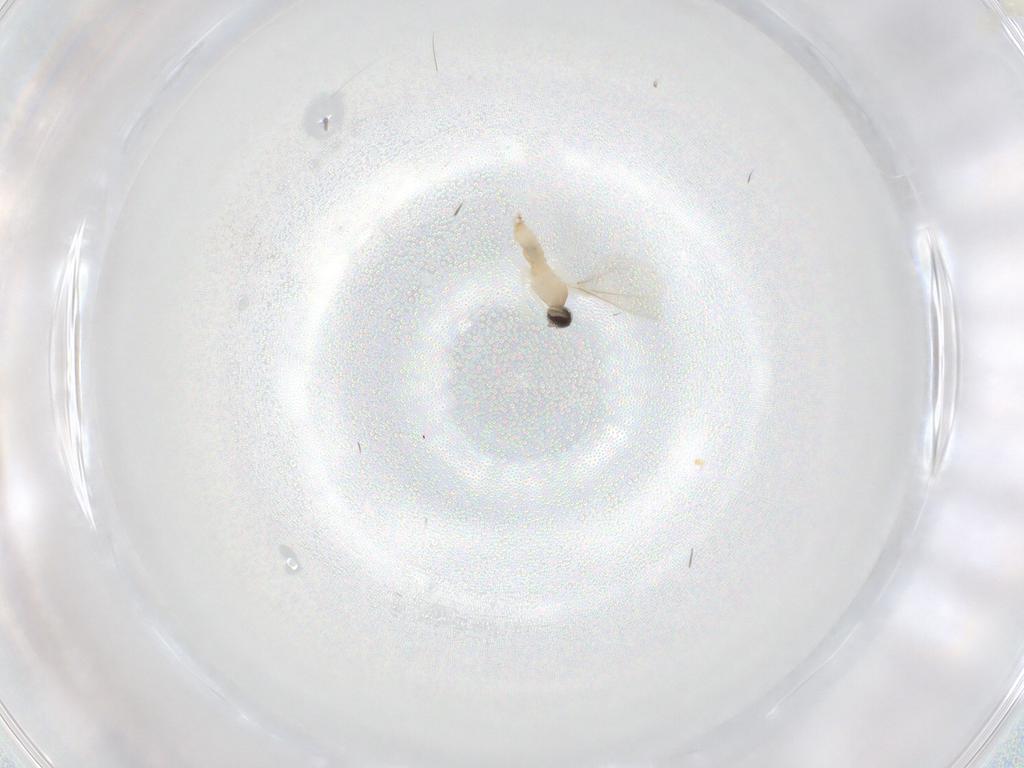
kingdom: Animalia
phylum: Arthropoda
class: Insecta
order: Diptera
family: Cecidomyiidae
